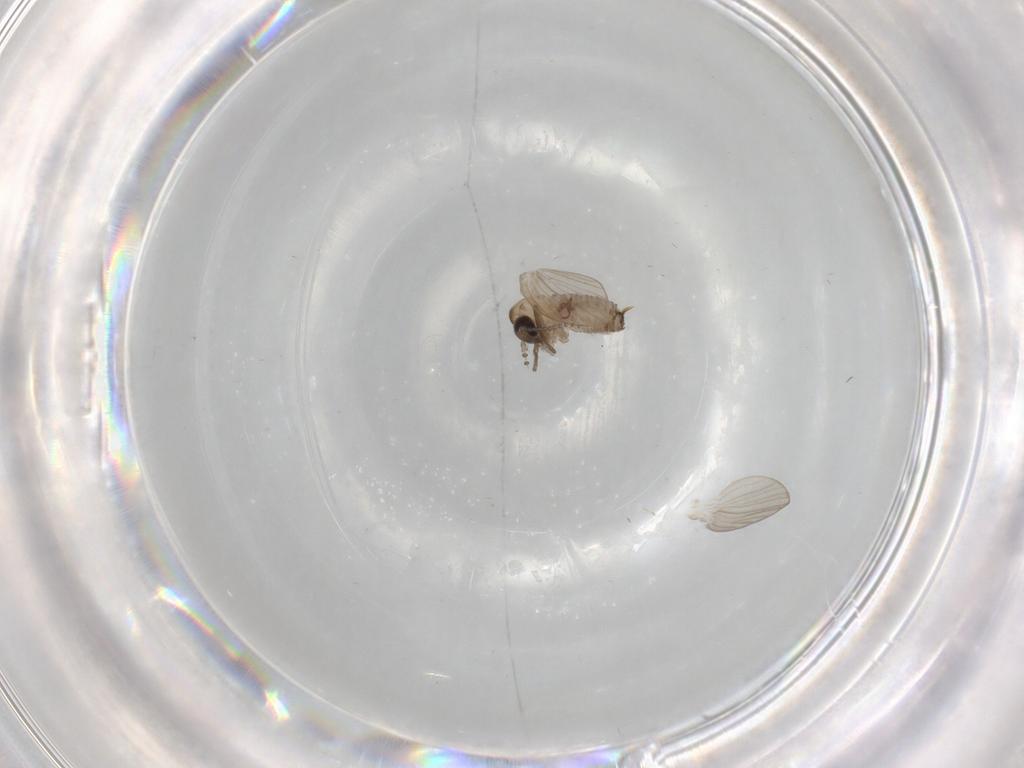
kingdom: Animalia
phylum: Arthropoda
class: Insecta
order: Diptera
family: Psychodidae
